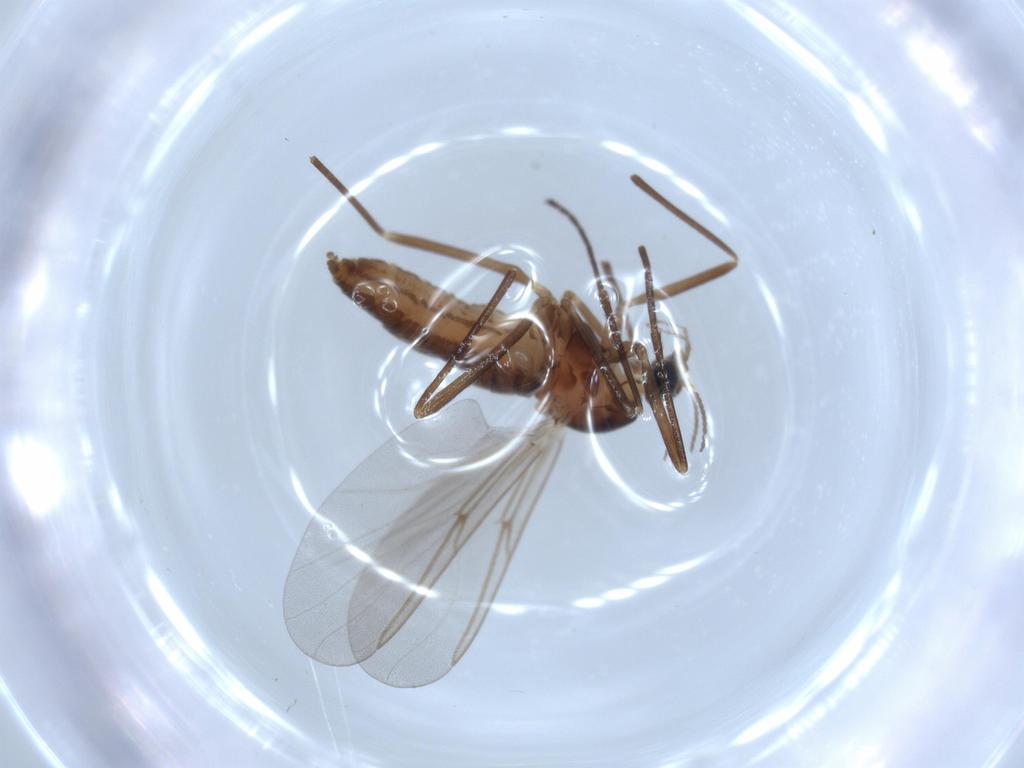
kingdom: Animalia
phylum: Arthropoda
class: Insecta
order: Diptera
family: Cecidomyiidae
